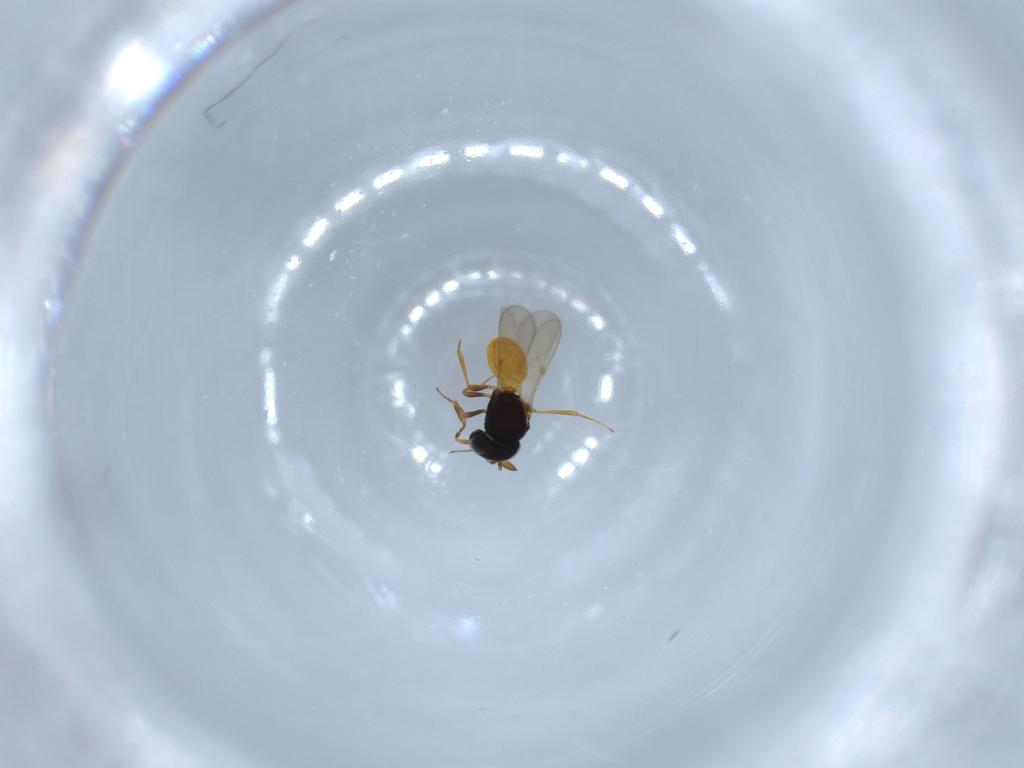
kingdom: Animalia
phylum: Arthropoda
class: Insecta
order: Hymenoptera
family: Scelionidae
